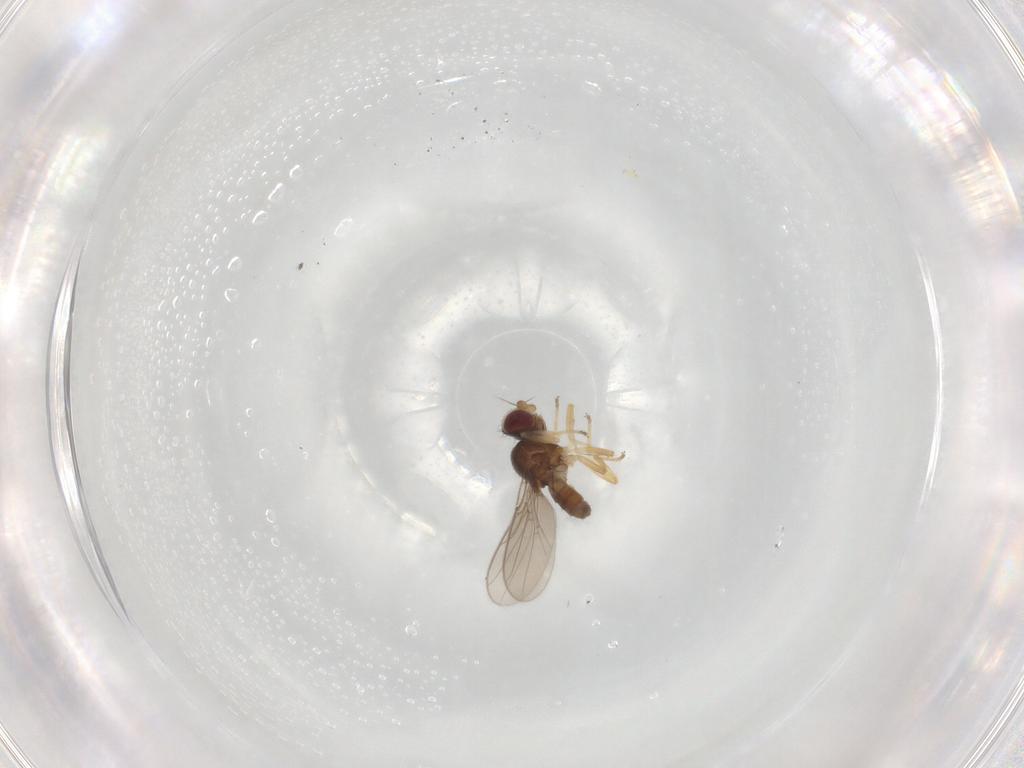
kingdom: Animalia
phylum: Arthropoda
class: Insecta
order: Diptera
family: Chloropidae
